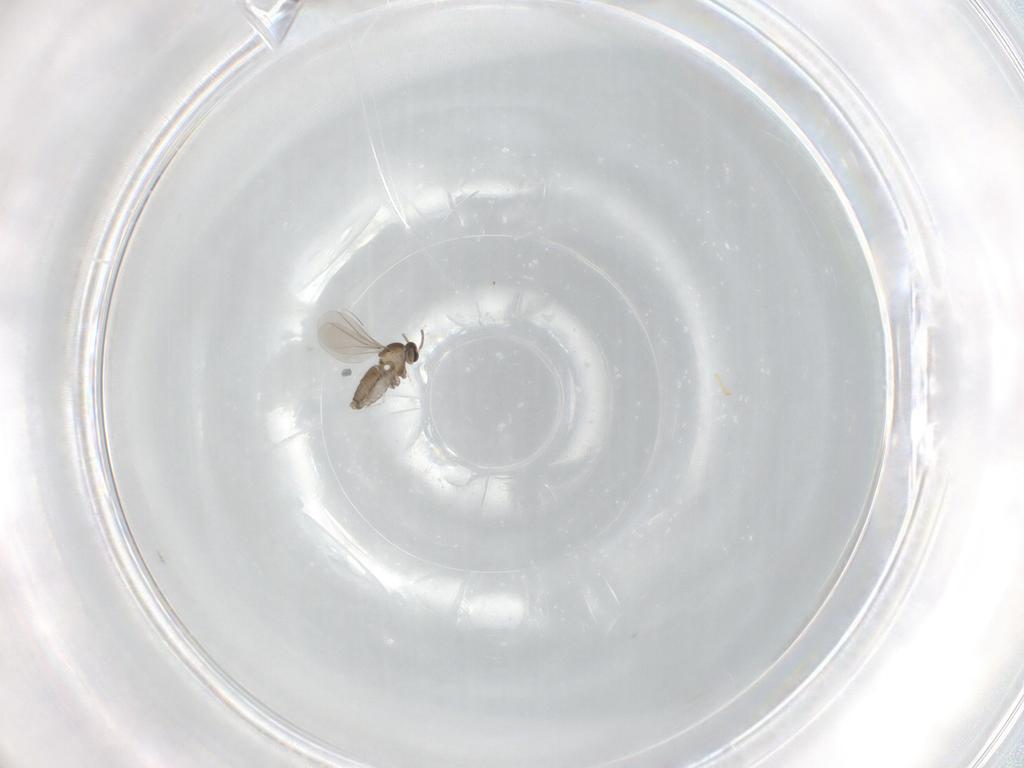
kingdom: Animalia
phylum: Arthropoda
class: Insecta
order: Diptera
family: Cecidomyiidae
